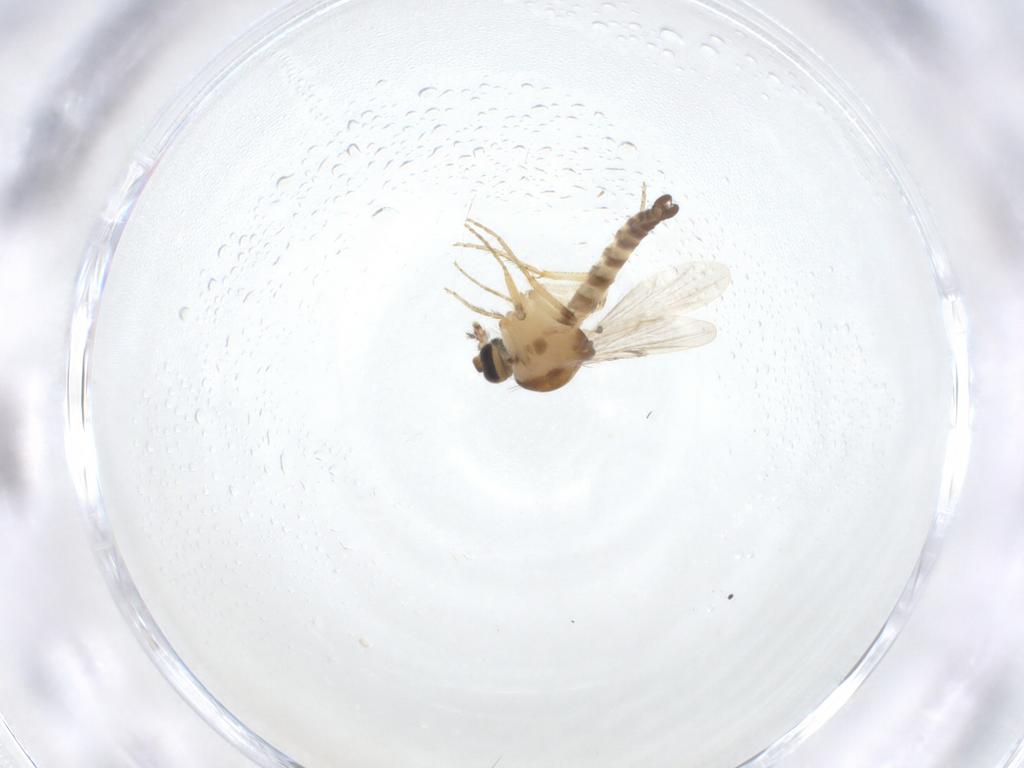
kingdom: Animalia
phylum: Arthropoda
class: Insecta
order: Diptera
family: Ceratopogonidae
